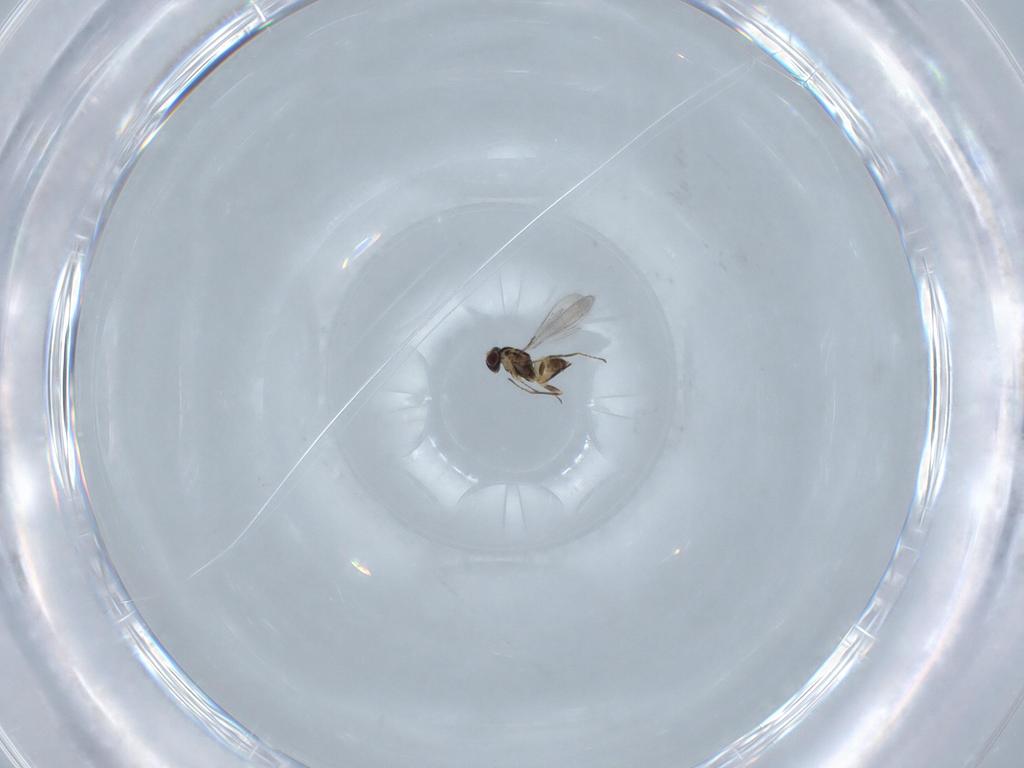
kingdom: Animalia
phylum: Arthropoda
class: Insecta
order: Hymenoptera
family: Mymaridae
